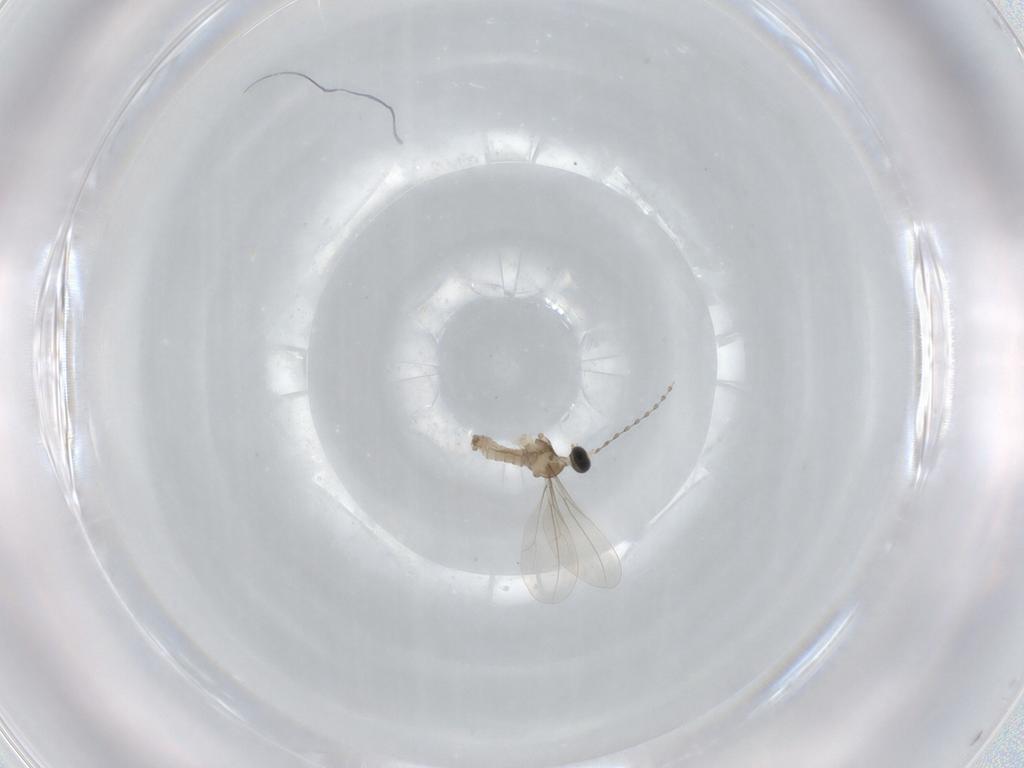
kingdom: Animalia
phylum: Arthropoda
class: Insecta
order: Diptera
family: Cecidomyiidae
